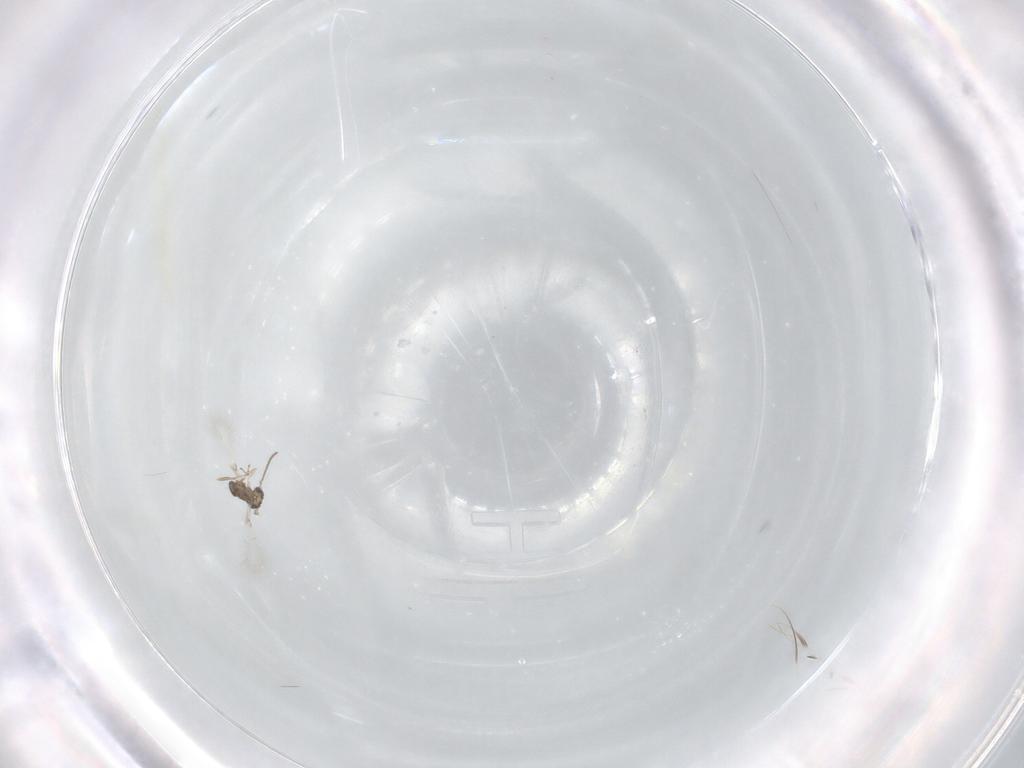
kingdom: Animalia
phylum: Arthropoda
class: Insecta
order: Hymenoptera
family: Mymaridae
